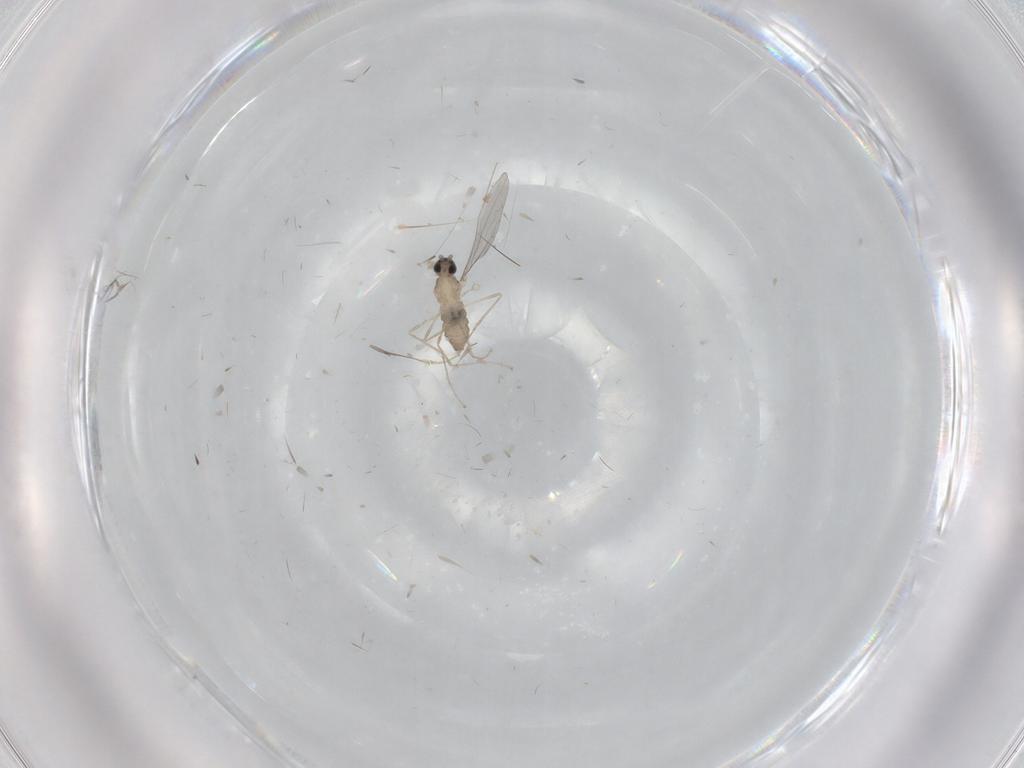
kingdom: Animalia
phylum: Arthropoda
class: Insecta
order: Diptera
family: Cecidomyiidae
